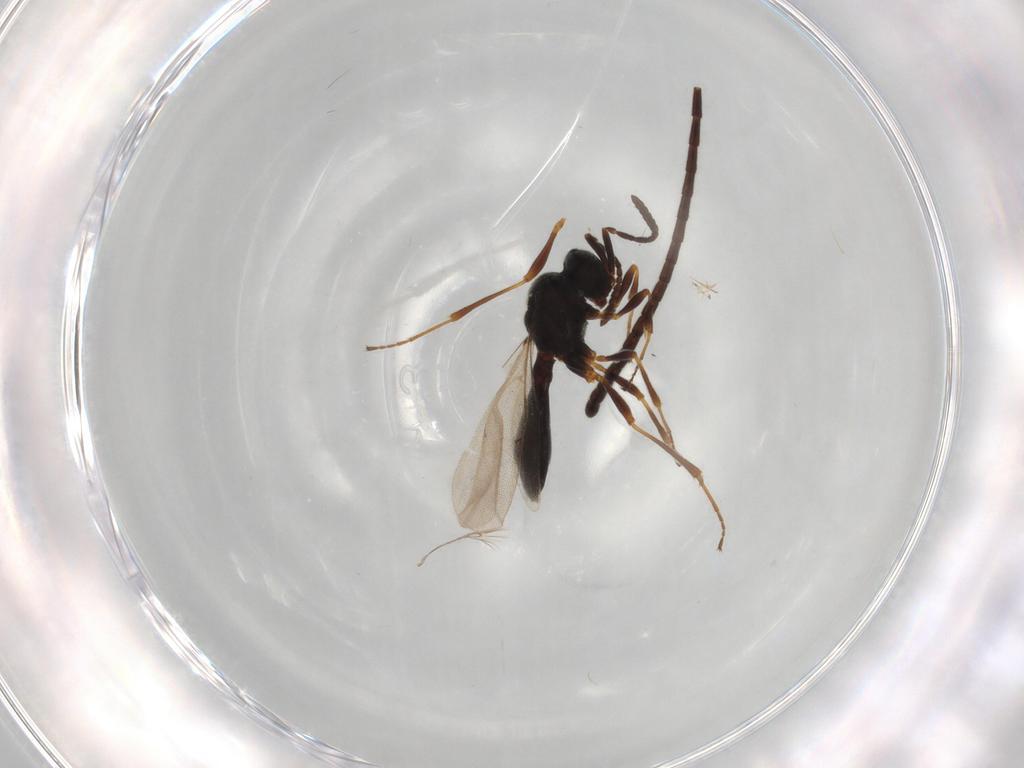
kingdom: Animalia
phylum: Arthropoda
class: Insecta
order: Hymenoptera
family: Ichneumonidae
